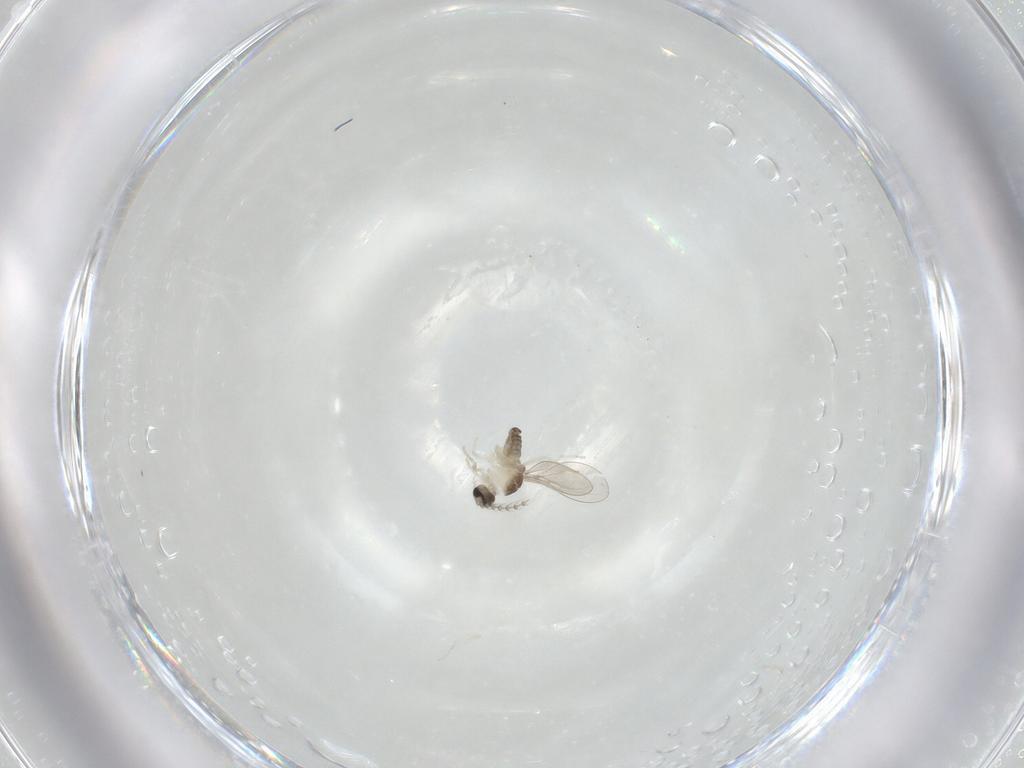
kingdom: Animalia
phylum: Arthropoda
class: Insecta
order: Diptera
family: Cecidomyiidae
